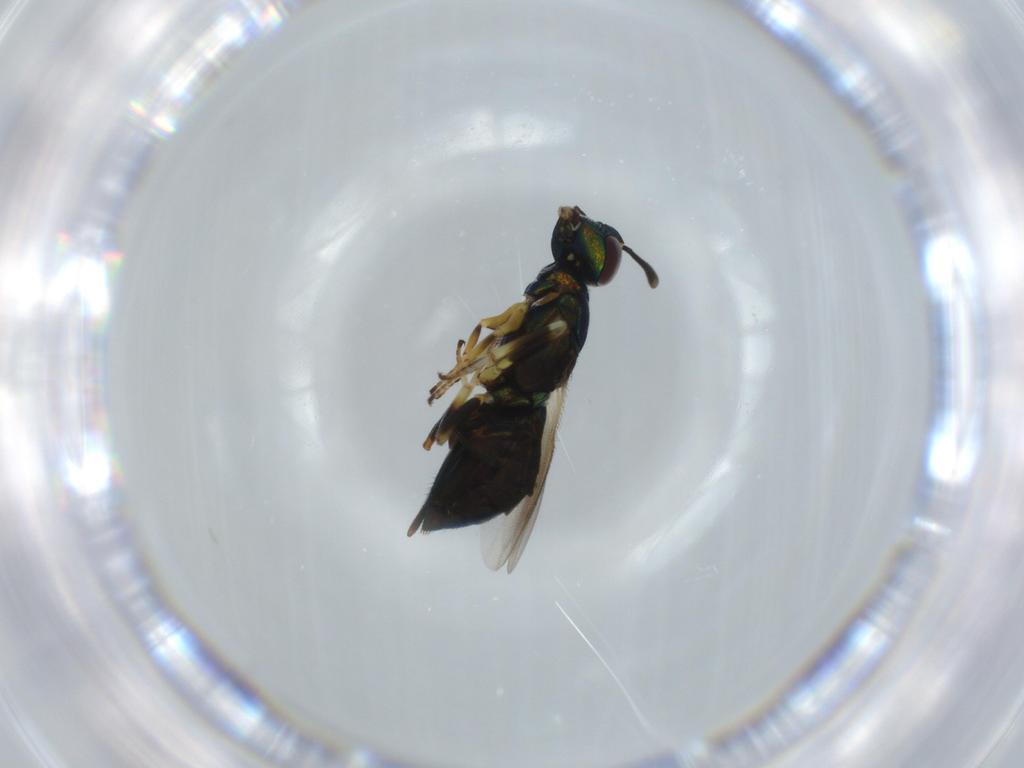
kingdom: Animalia
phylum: Arthropoda
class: Insecta
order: Hymenoptera
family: Eupelmidae
